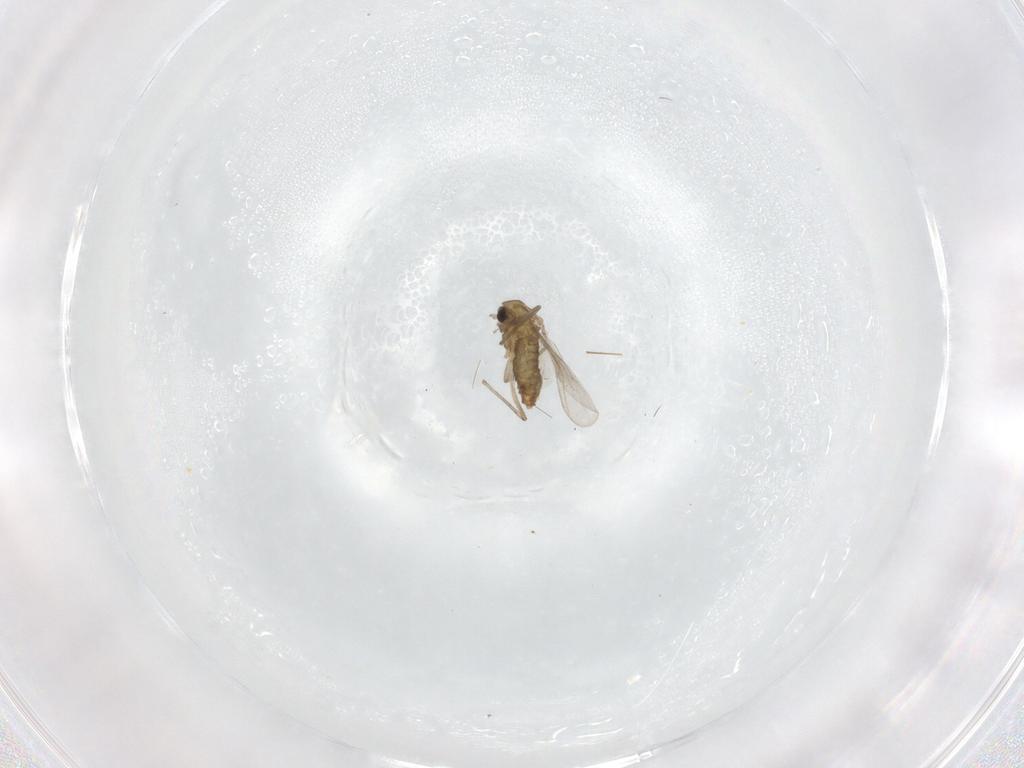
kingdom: Animalia
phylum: Arthropoda
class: Insecta
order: Diptera
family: Chironomidae
